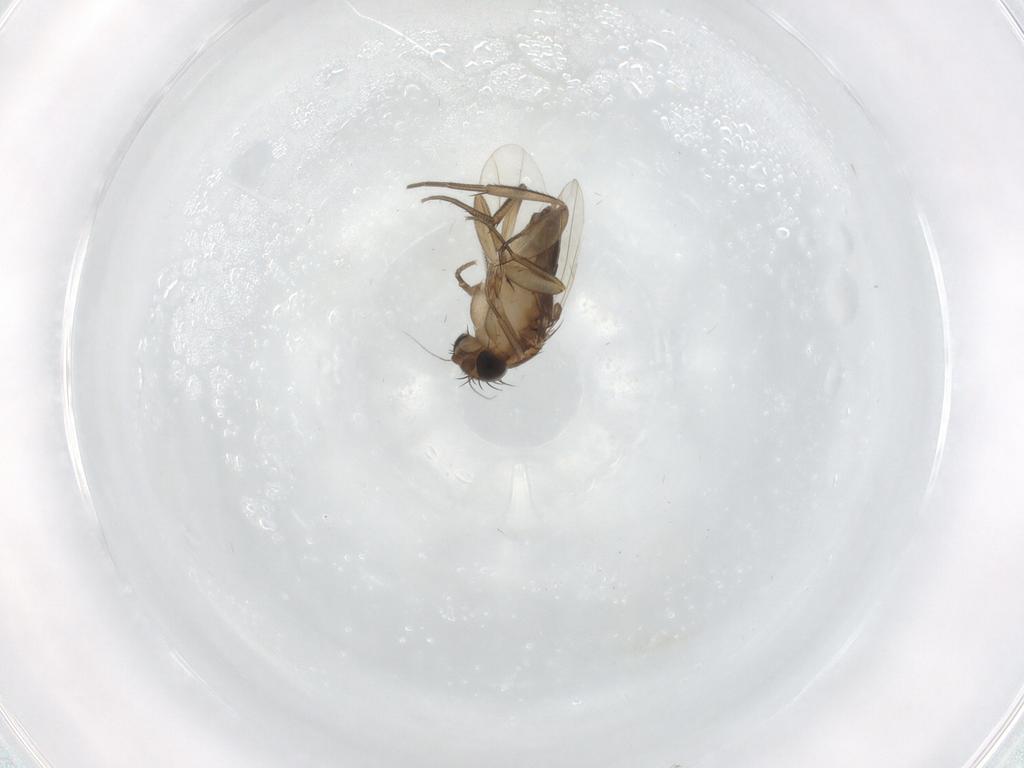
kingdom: Animalia
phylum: Arthropoda
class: Insecta
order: Diptera
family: Phoridae
